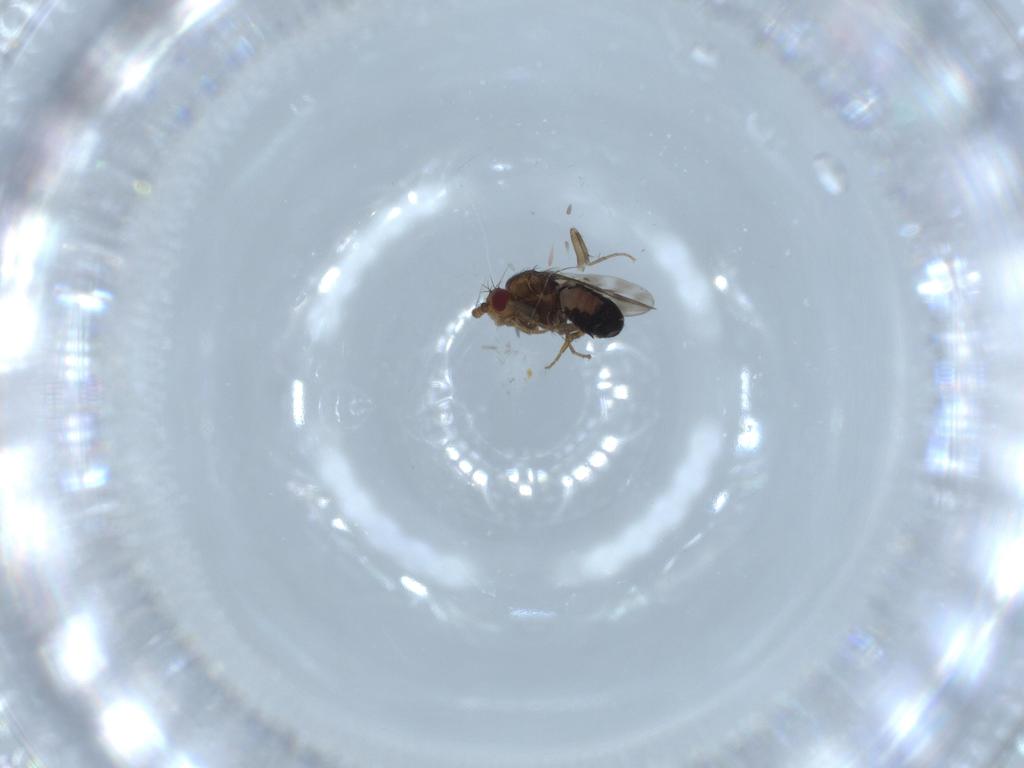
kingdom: Animalia
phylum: Arthropoda
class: Insecta
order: Diptera
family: Sphaeroceridae
